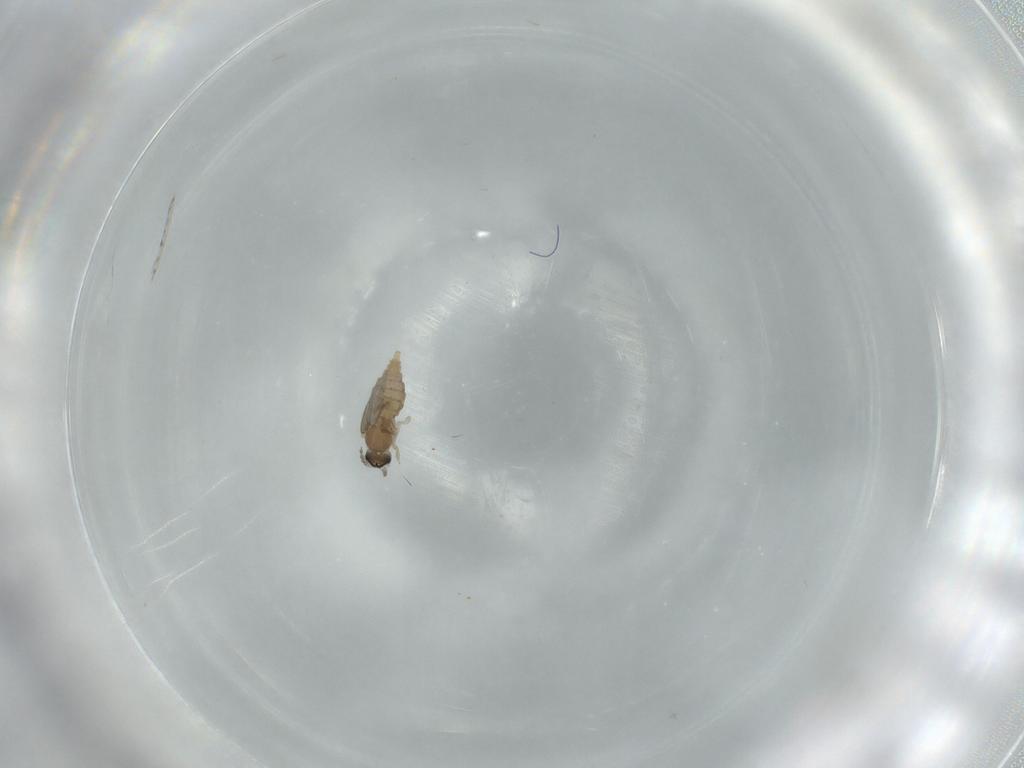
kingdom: Animalia
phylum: Arthropoda
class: Insecta
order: Diptera
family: Cecidomyiidae
